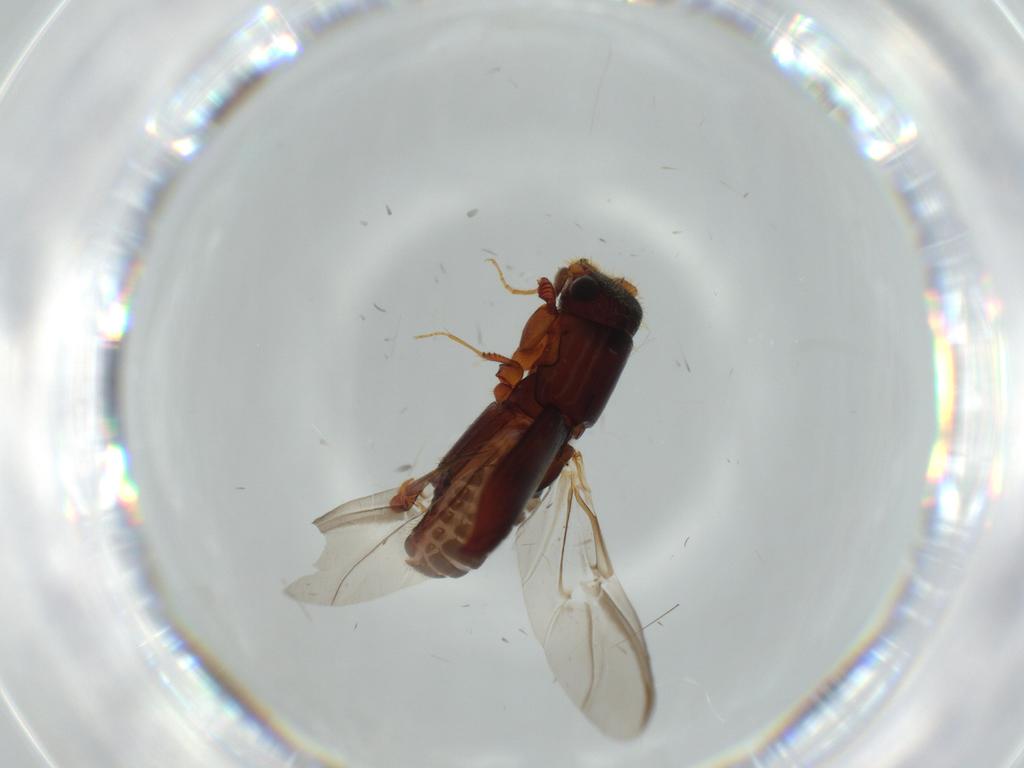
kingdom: Animalia
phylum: Arthropoda
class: Insecta
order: Coleoptera
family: Curculionidae
